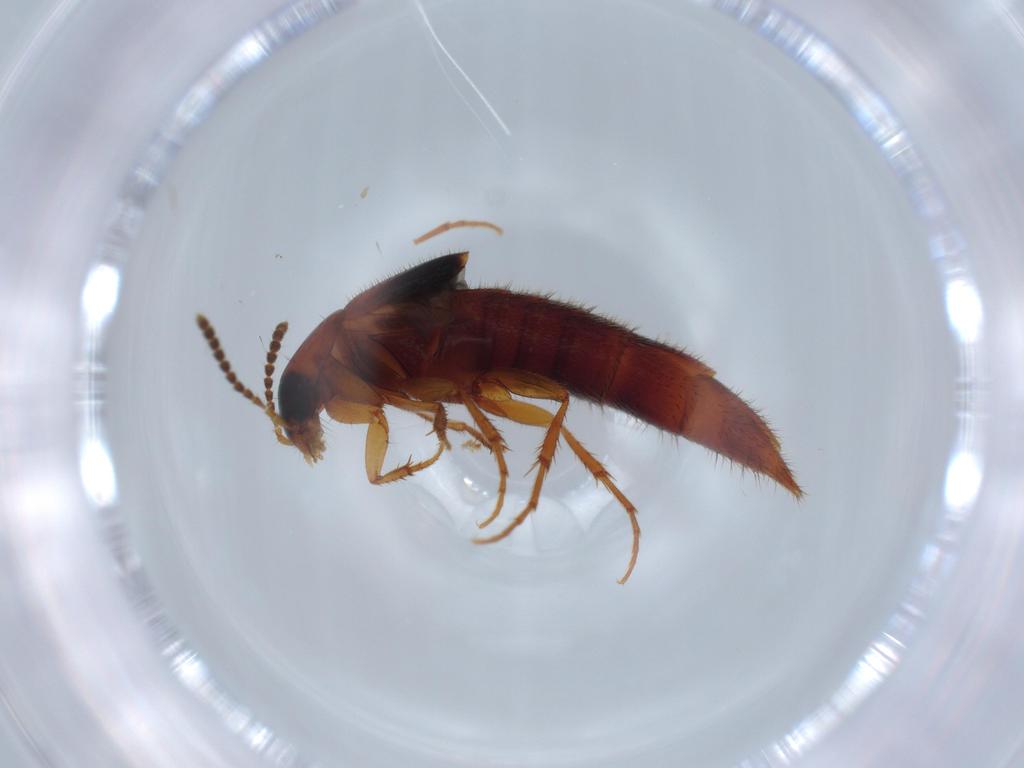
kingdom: Animalia
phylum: Arthropoda
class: Insecta
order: Coleoptera
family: Staphylinidae
